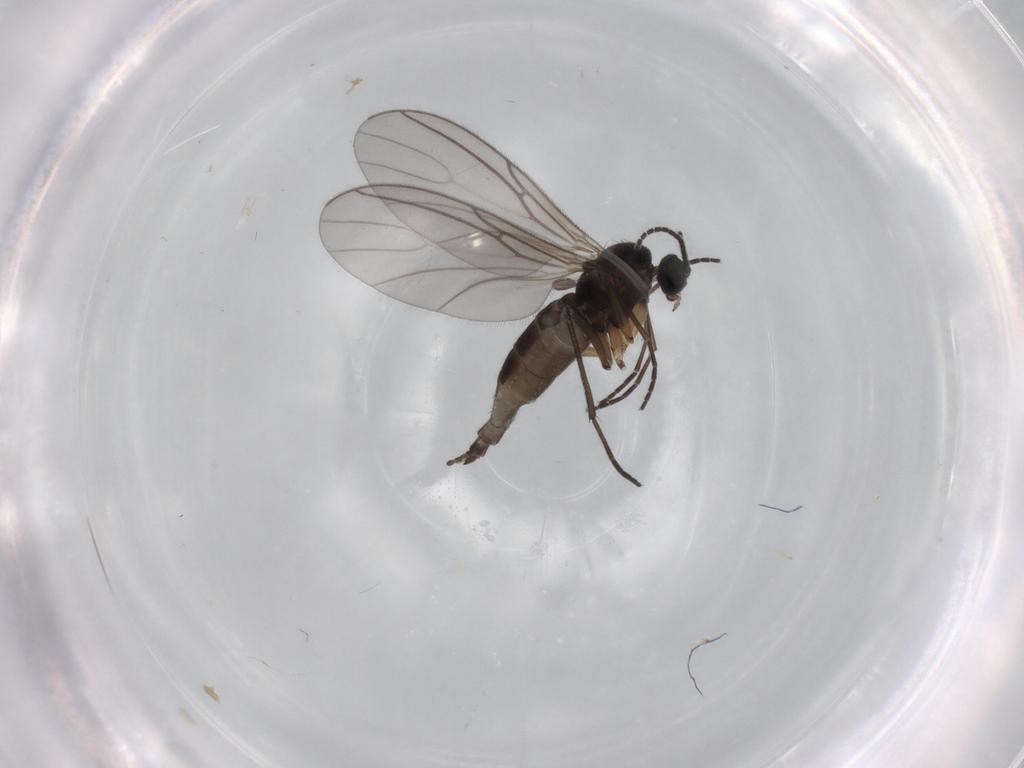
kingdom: Animalia
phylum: Arthropoda
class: Insecta
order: Diptera
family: Sciaridae
